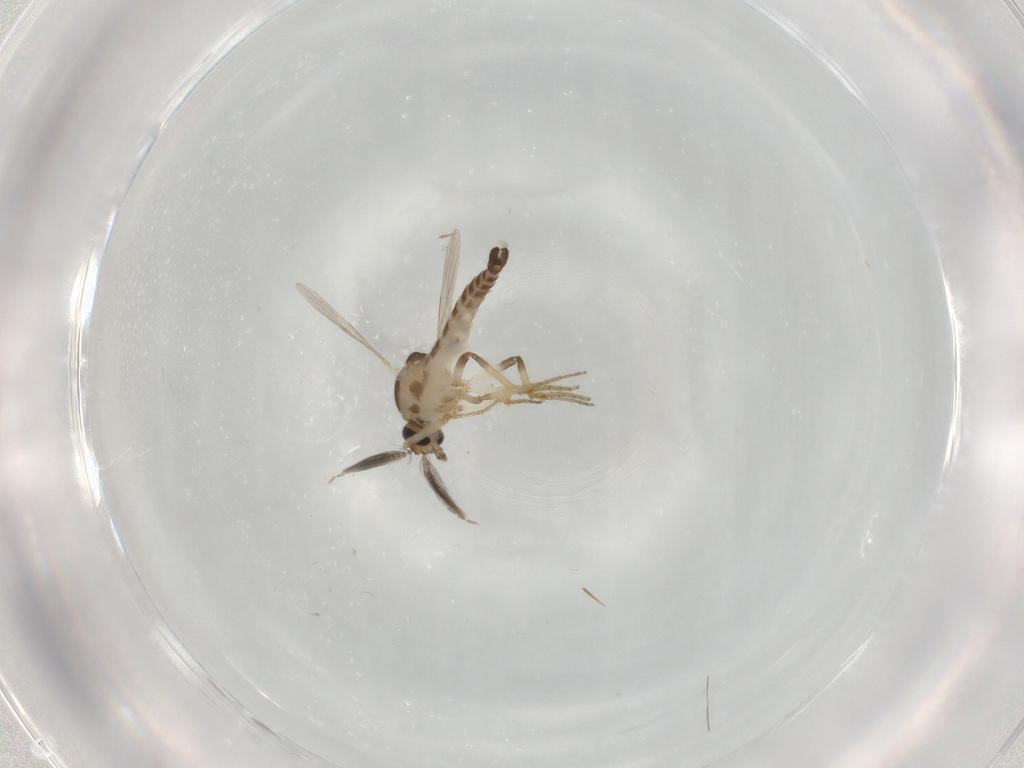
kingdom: Animalia
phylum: Arthropoda
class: Insecta
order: Diptera
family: Ceratopogonidae
